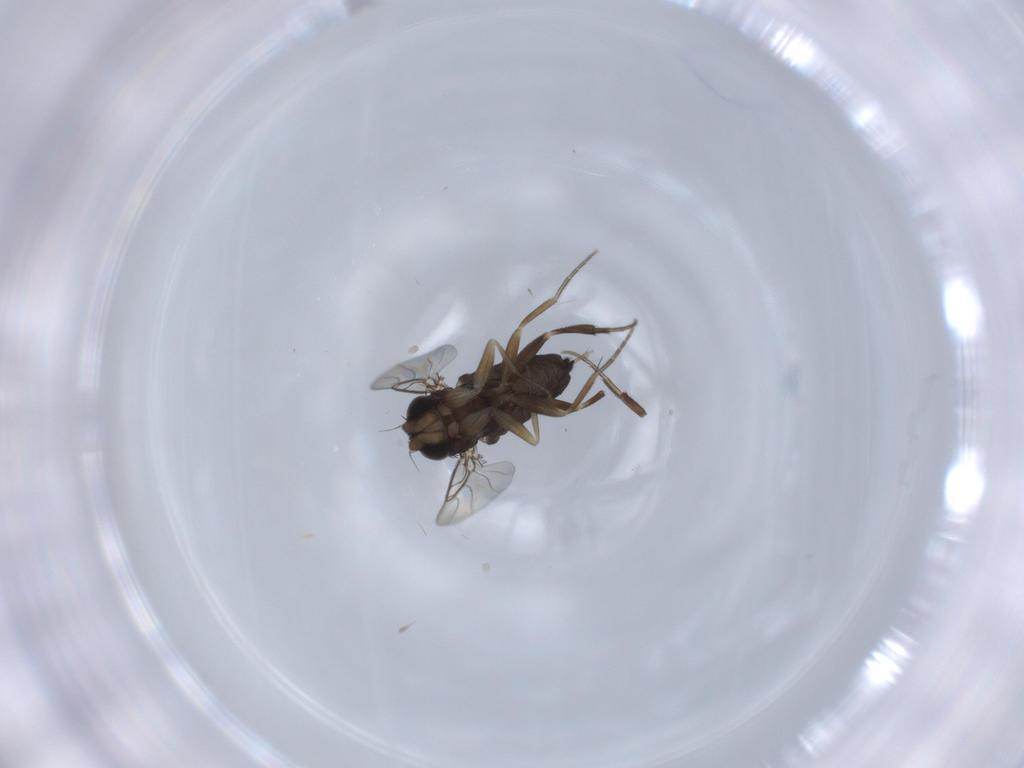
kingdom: Animalia
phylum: Arthropoda
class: Insecta
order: Diptera
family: Phoridae
